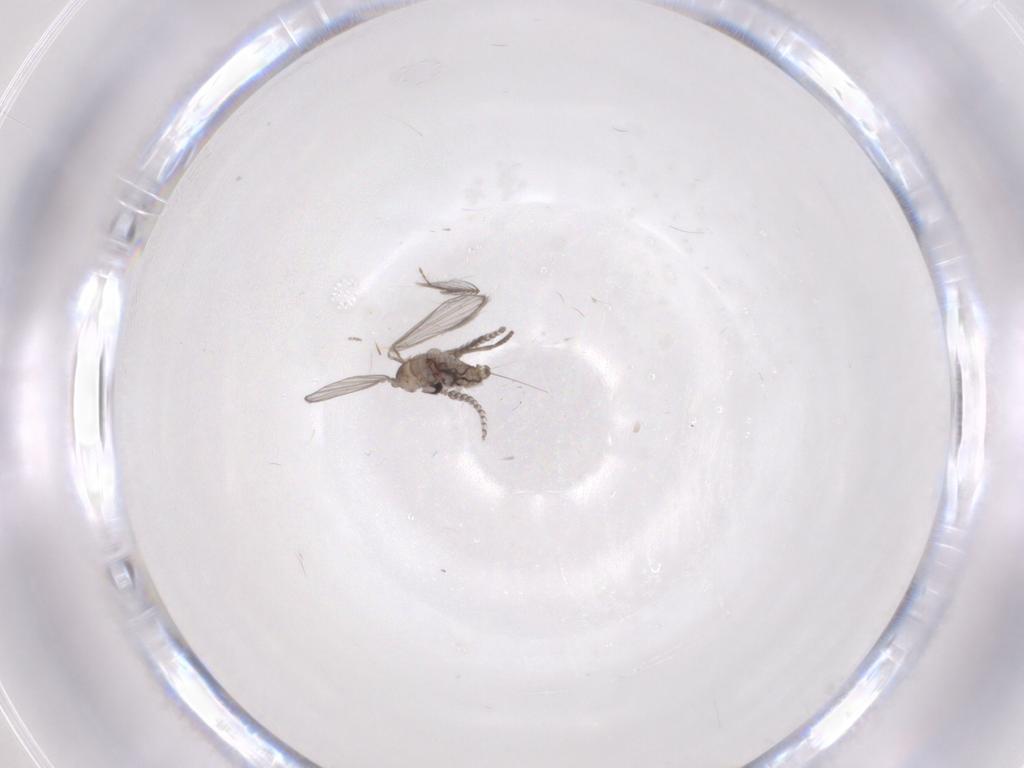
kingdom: Animalia
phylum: Arthropoda
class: Insecta
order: Diptera
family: Psychodidae
